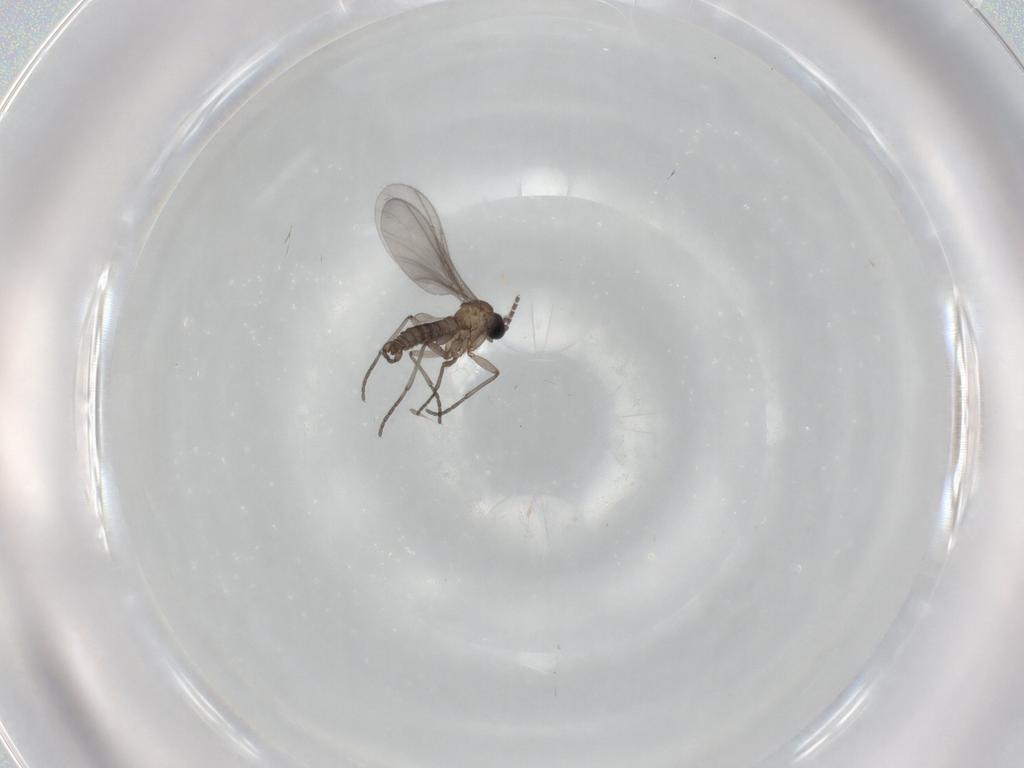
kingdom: Animalia
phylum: Arthropoda
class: Insecta
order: Diptera
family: Sciaridae
